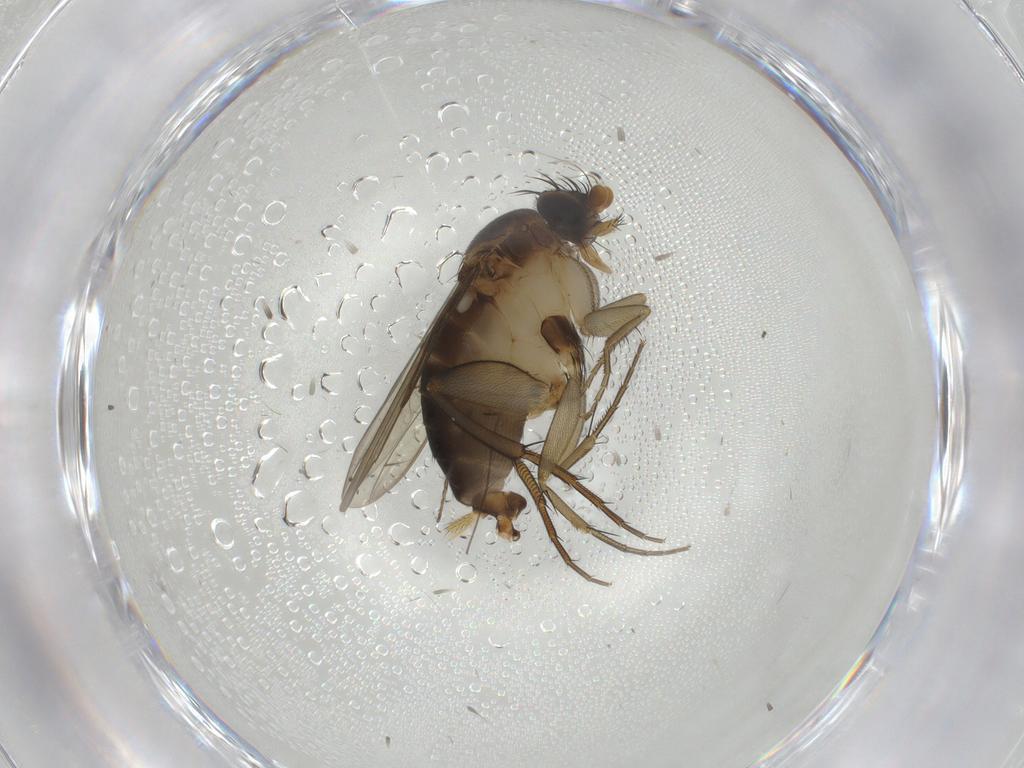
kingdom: Animalia
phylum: Arthropoda
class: Insecta
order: Diptera
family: Cecidomyiidae
